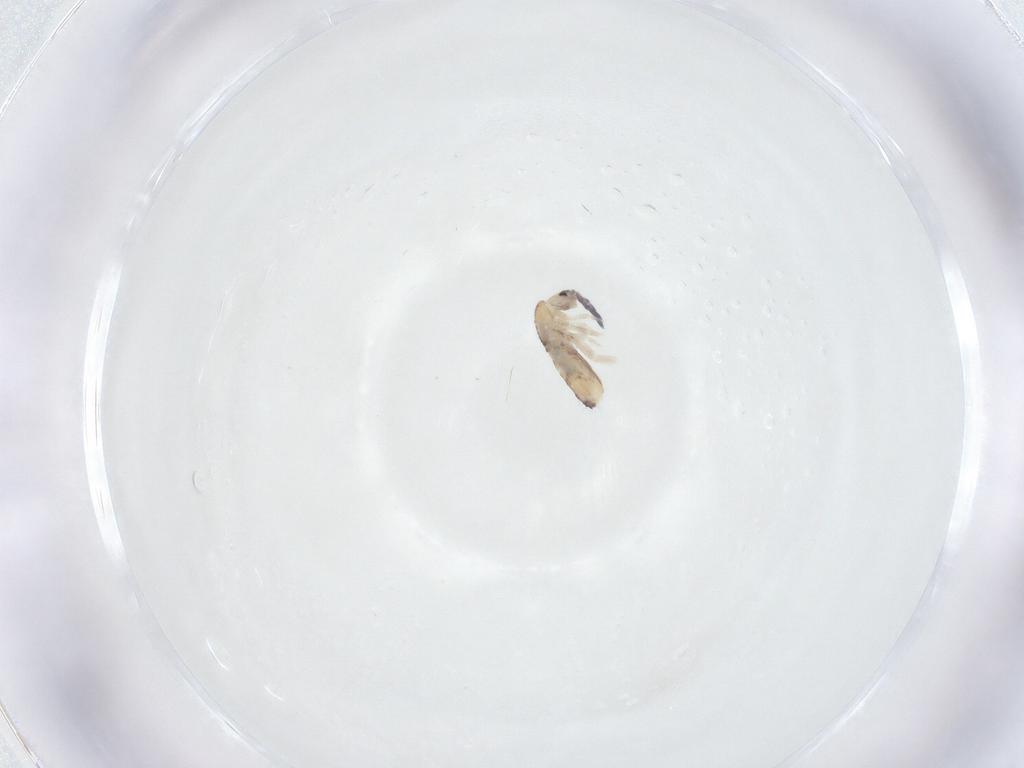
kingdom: Animalia
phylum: Arthropoda
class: Collembola
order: Entomobryomorpha
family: Entomobryidae
